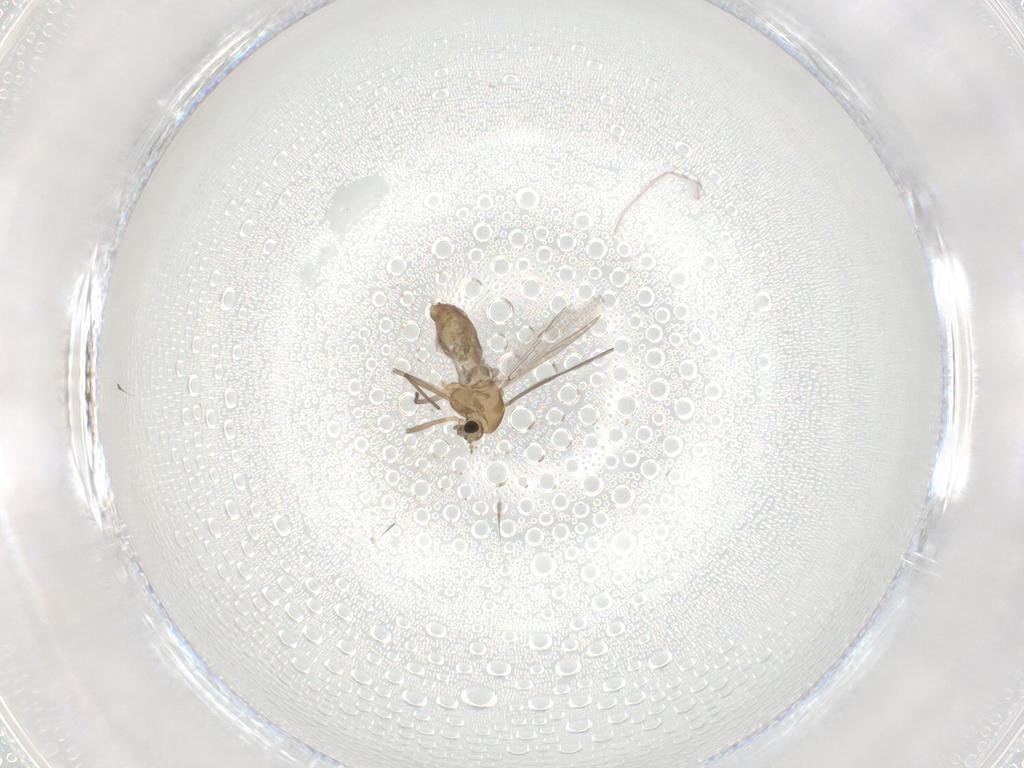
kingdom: Animalia
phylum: Arthropoda
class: Insecta
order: Diptera
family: Chironomidae
